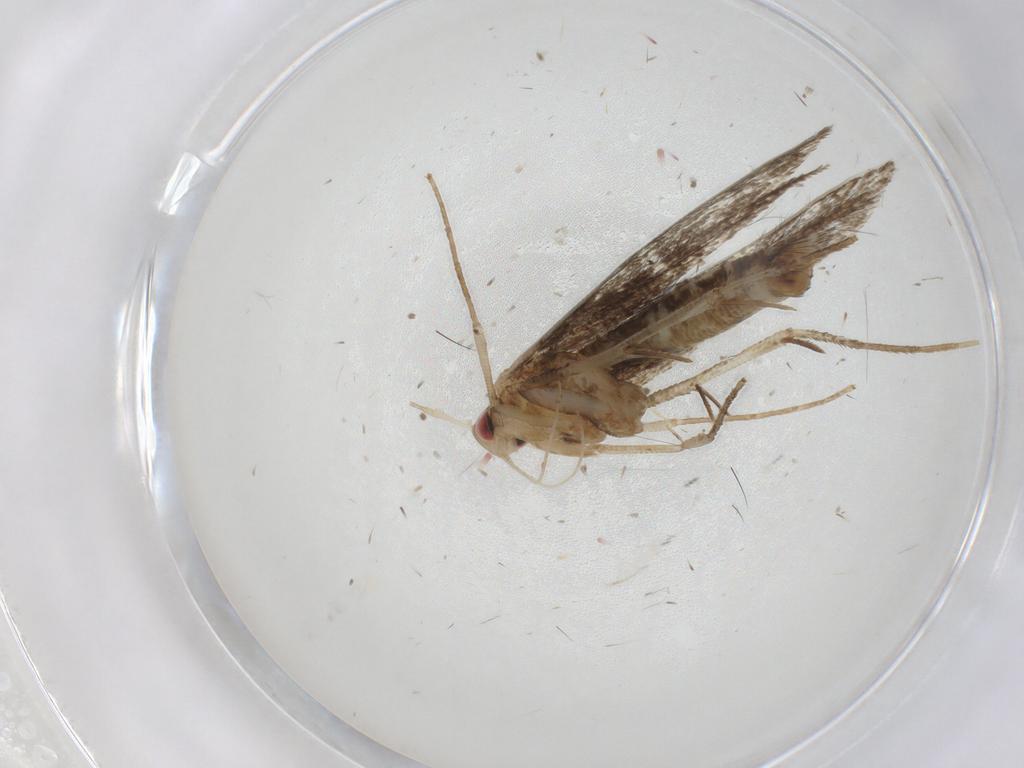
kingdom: Animalia
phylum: Arthropoda
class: Insecta
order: Lepidoptera
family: Cosmopterigidae
